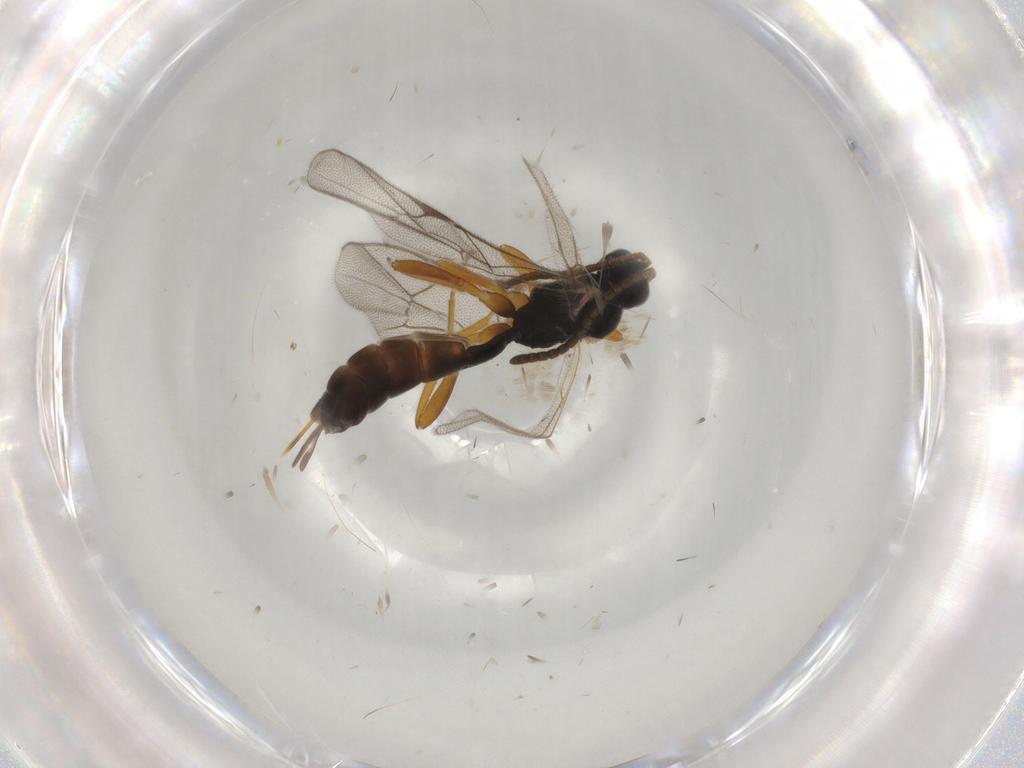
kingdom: Animalia
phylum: Arthropoda
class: Insecta
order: Hymenoptera
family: Ichneumonidae
